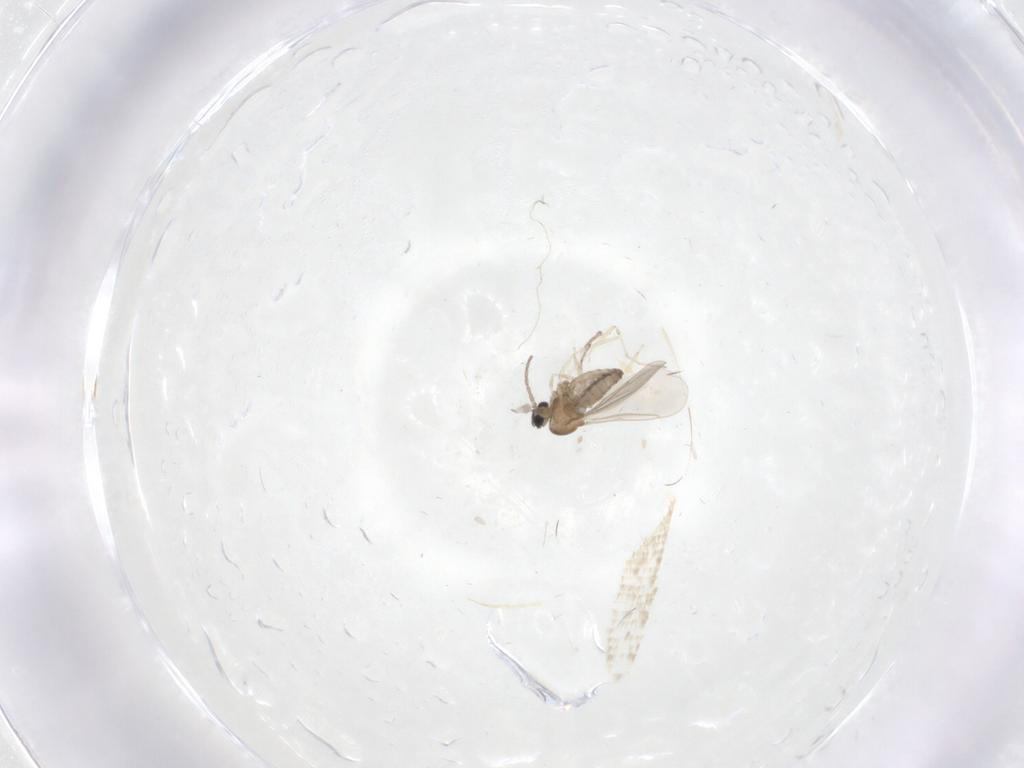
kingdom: Animalia
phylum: Arthropoda
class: Insecta
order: Diptera
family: Cecidomyiidae
